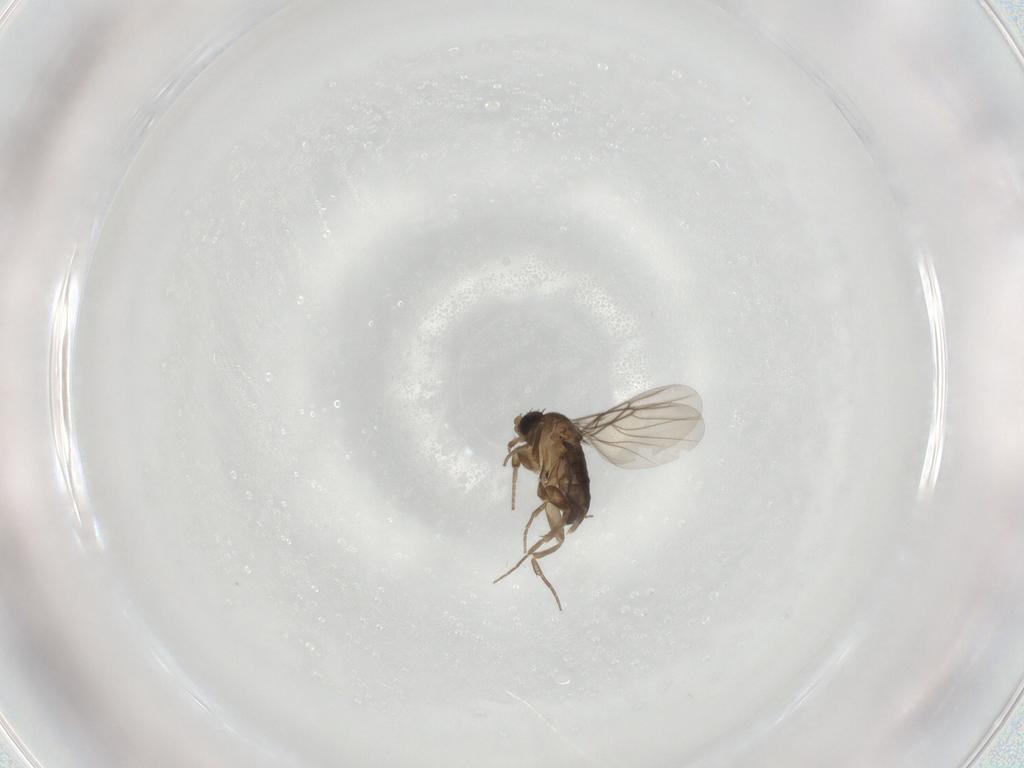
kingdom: Animalia
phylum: Arthropoda
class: Insecta
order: Diptera
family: Phoridae
